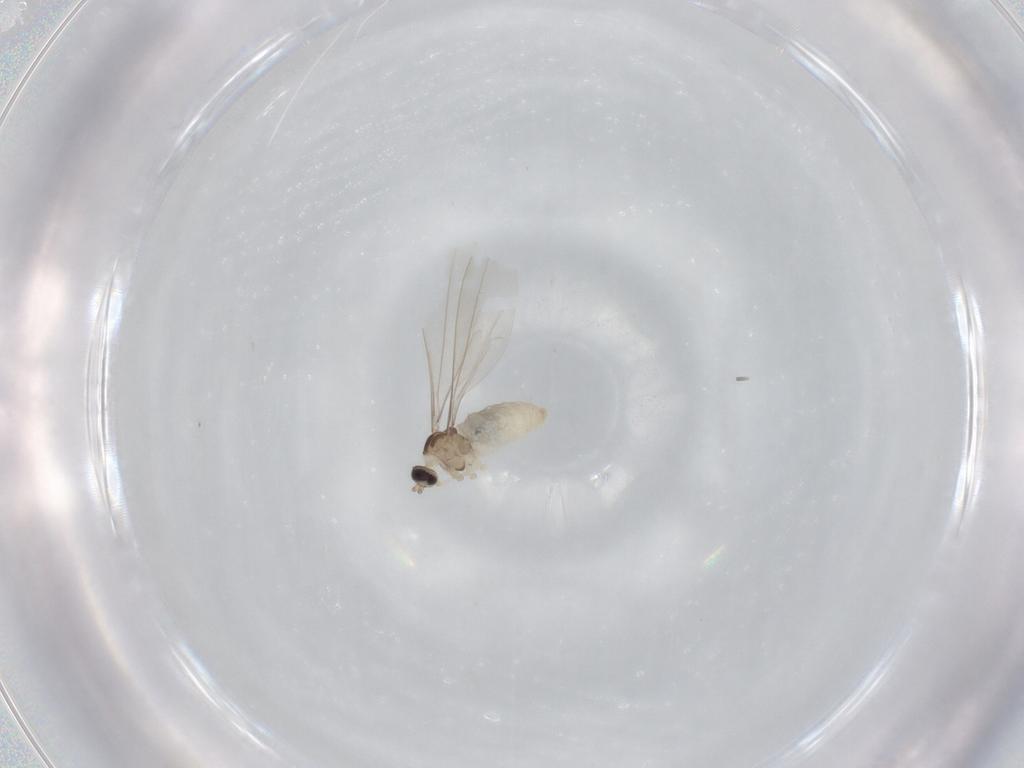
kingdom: Animalia
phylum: Arthropoda
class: Insecta
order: Diptera
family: Cecidomyiidae
